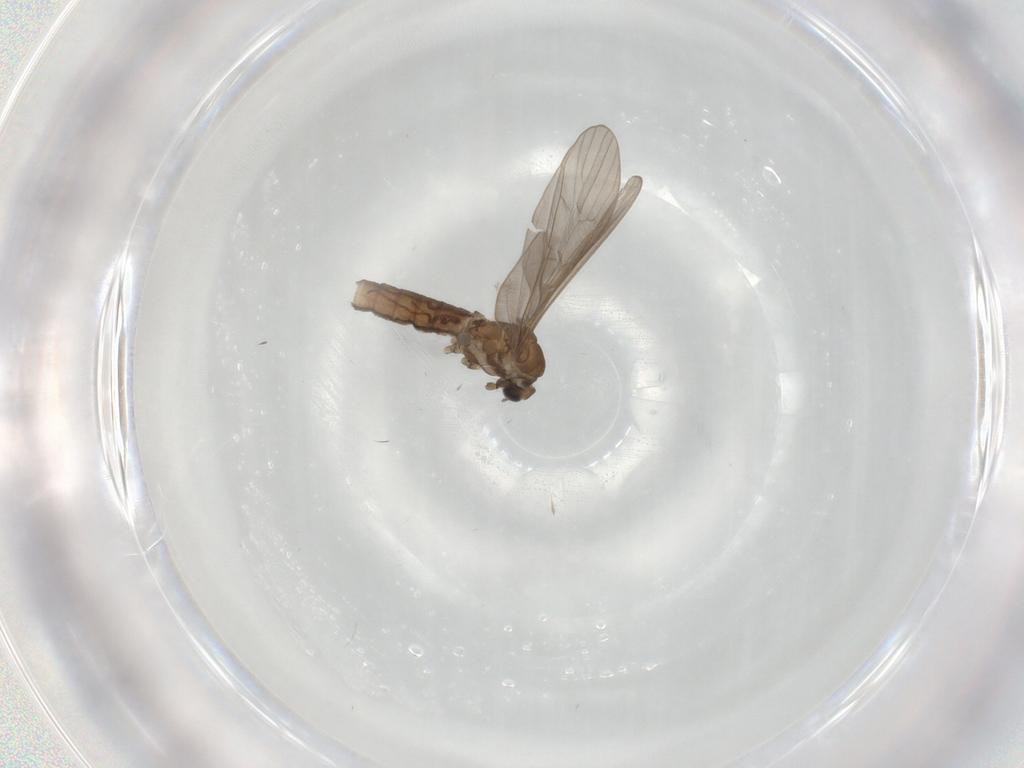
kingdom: Animalia
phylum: Arthropoda
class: Insecta
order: Diptera
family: Limoniidae
